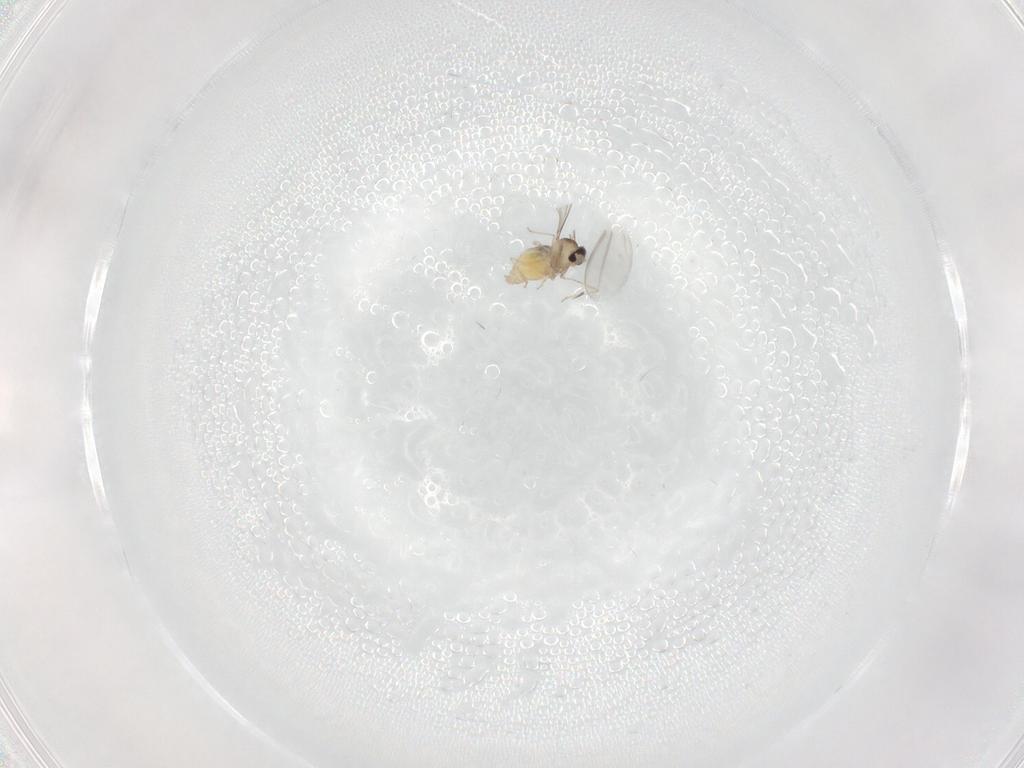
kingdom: Animalia
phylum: Arthropoda
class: Insecta
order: Diptera
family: Cecidomyiidae
